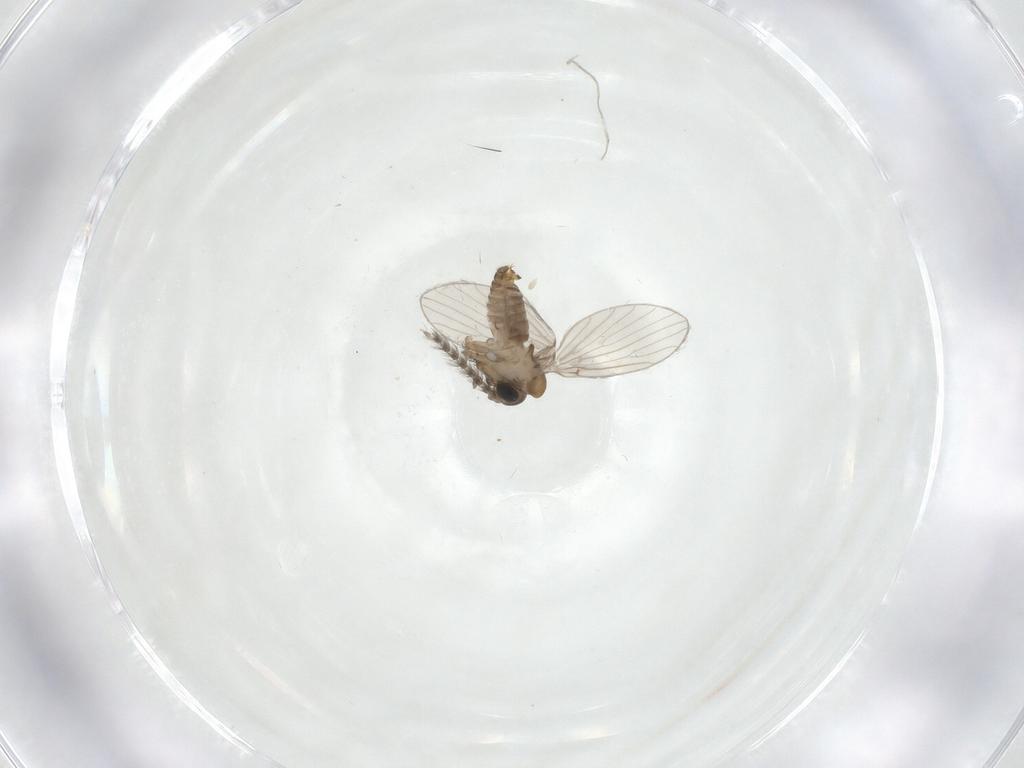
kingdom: Animalia
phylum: Arthropoda
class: Insecta
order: Diptera
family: Psychodidae
